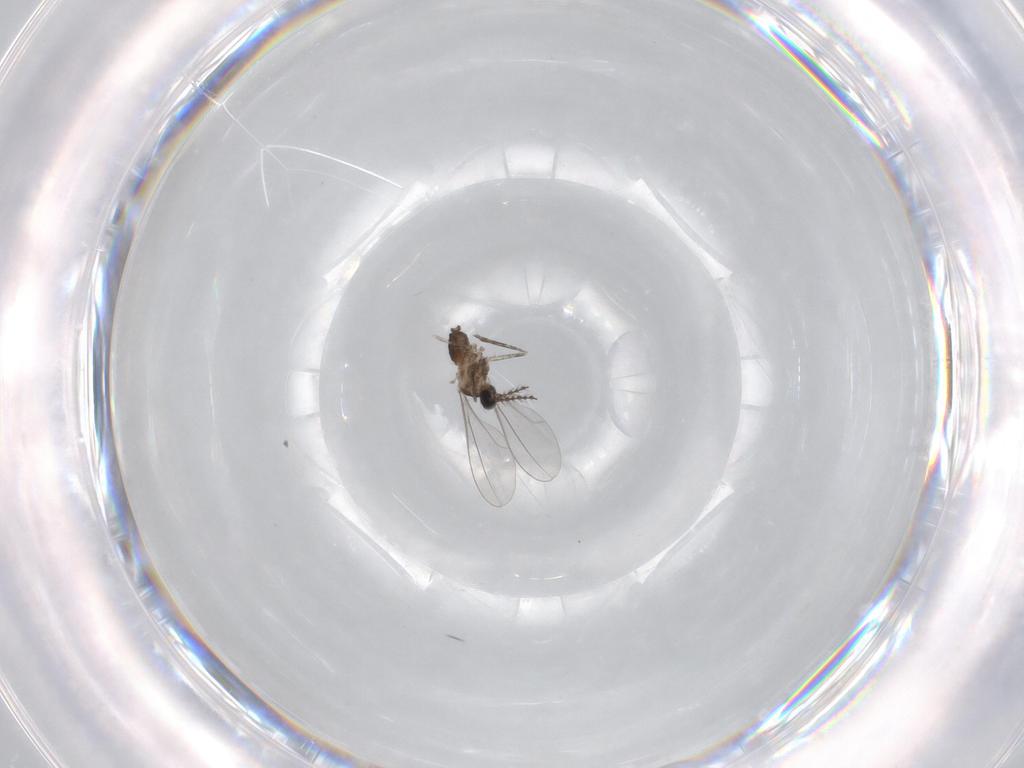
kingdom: Animalia
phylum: Arthropoda
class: Insecta
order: Diptera
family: Cecidomyiidae
